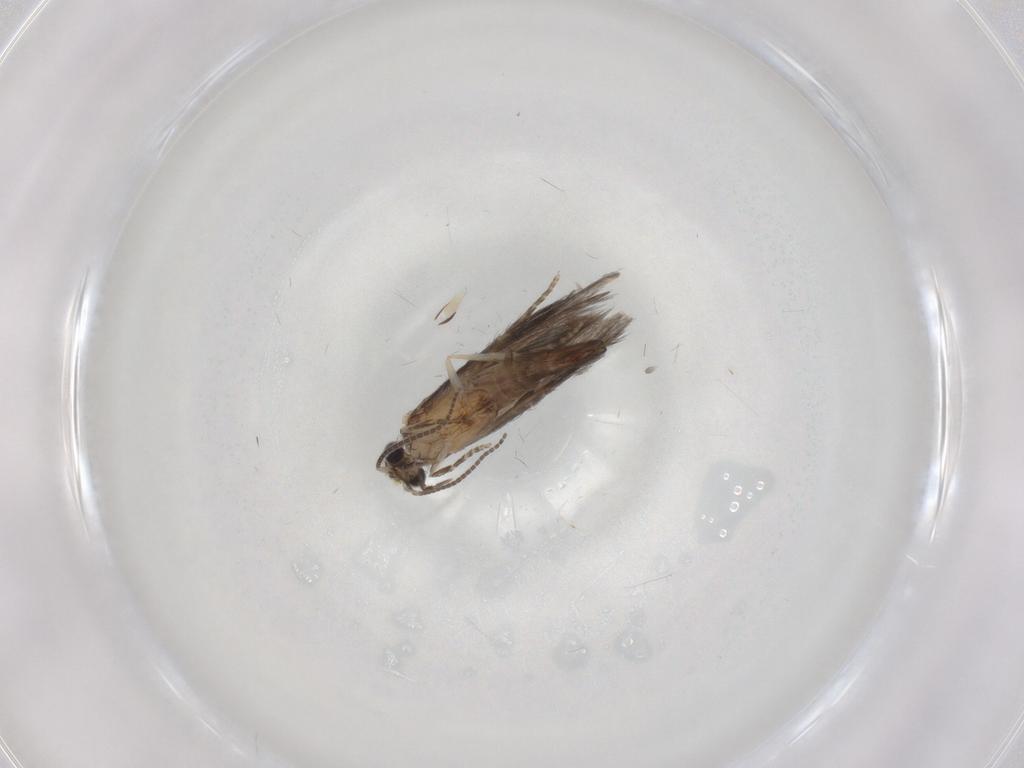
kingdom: Animalia
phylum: Arthropoda
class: Insecta
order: Trichoptera
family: Hydroptilidae
